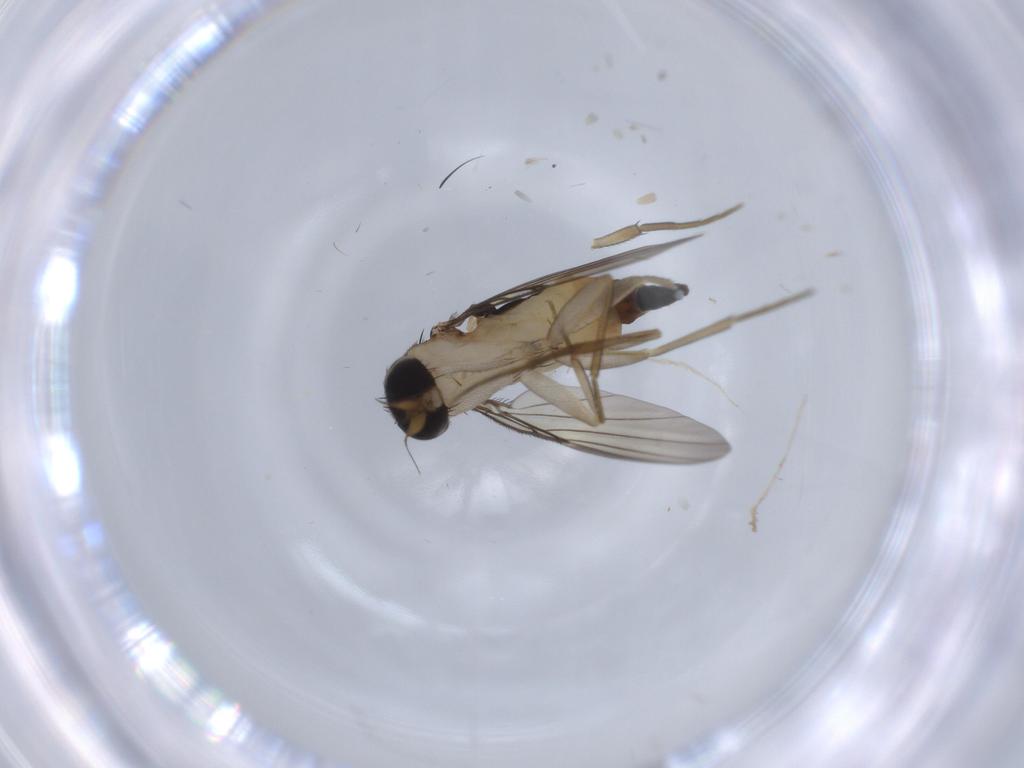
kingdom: Animalia
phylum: Arthropoda
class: Insecta
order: Diptera
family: Phoridae
